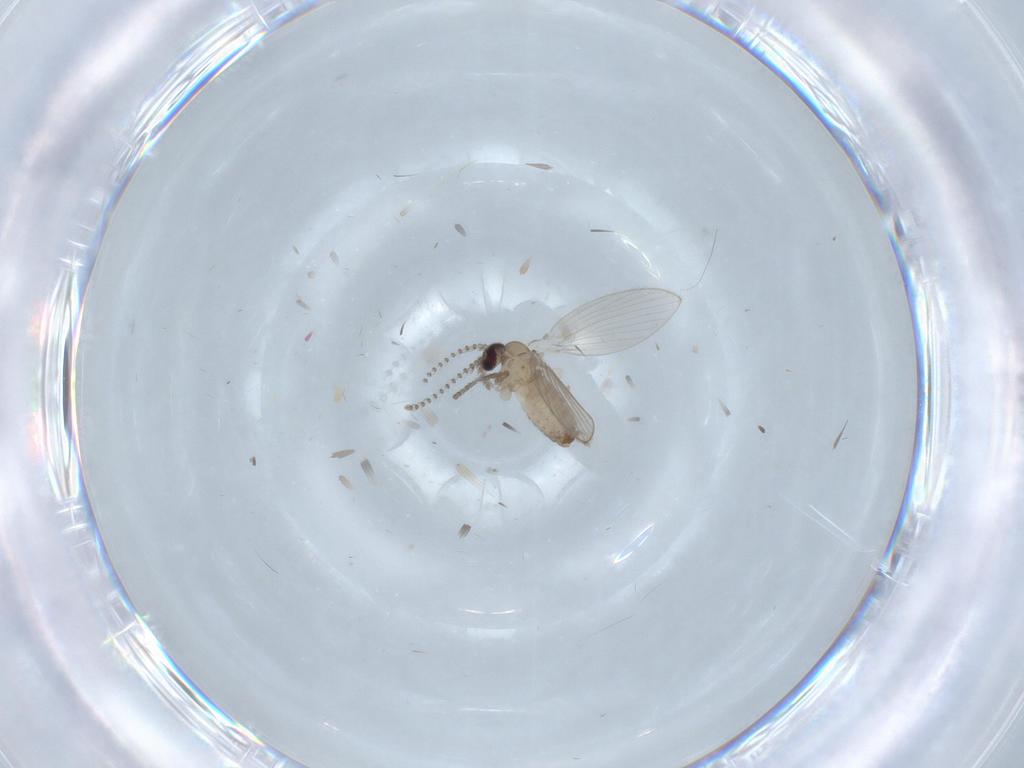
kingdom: Animalia
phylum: Arthropoda
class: Insecta
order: Diptera
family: Psychodidae
